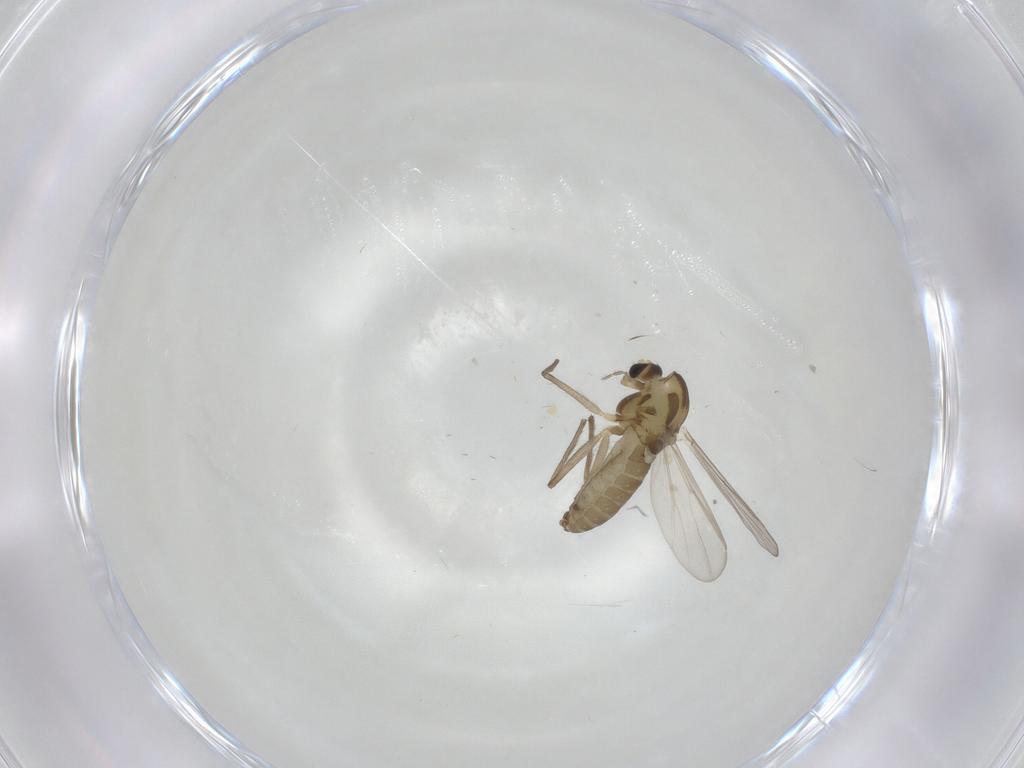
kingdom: Animalia
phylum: Arthropoda
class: Insecta
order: Diptera
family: Chironomidae
